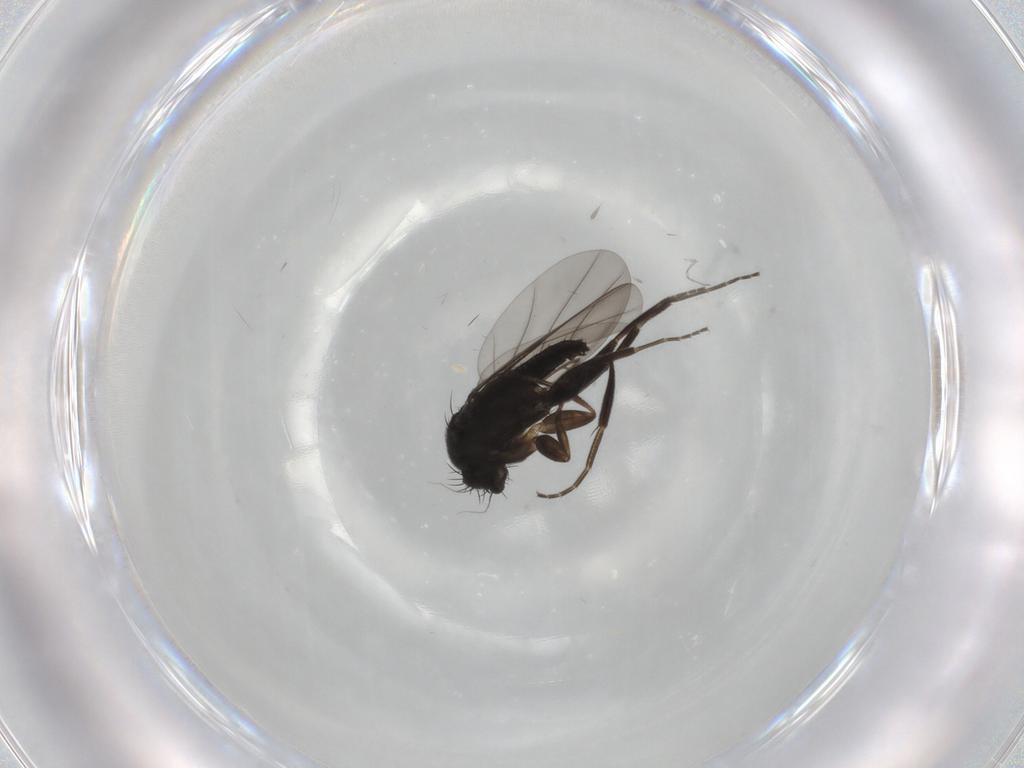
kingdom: Animalia
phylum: Arthropoda
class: Insecta
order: Diptera
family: Phoridae
